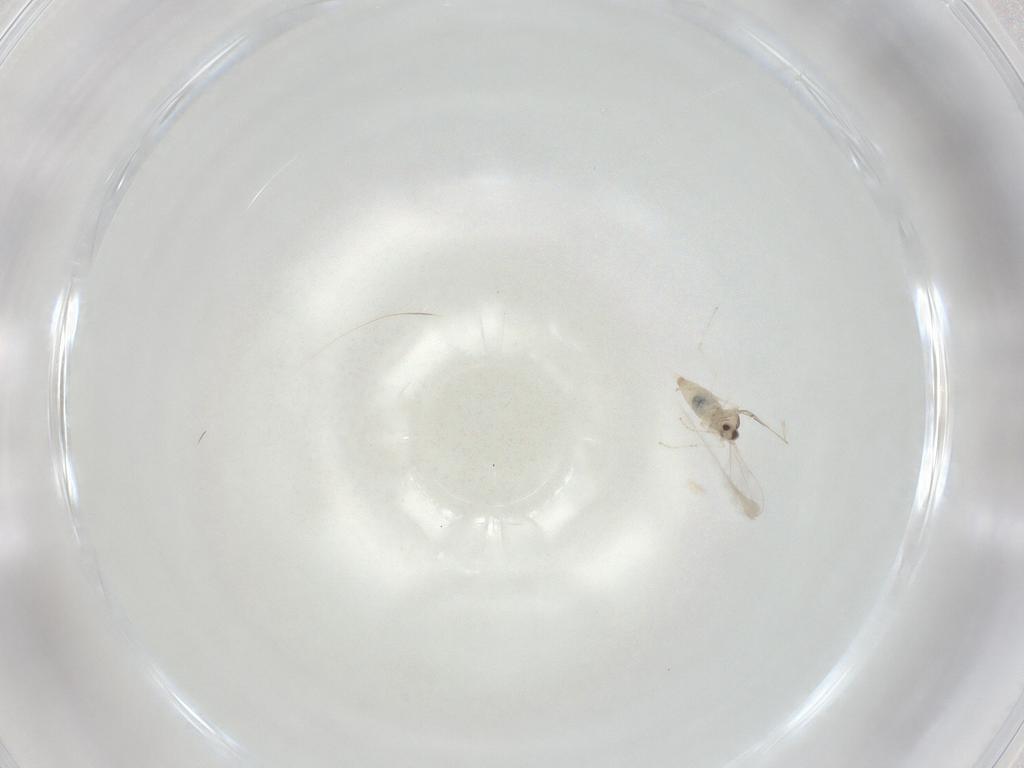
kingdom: Animalia
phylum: Arthropoda
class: Insecta
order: Diptera
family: Cecidomyiidae
